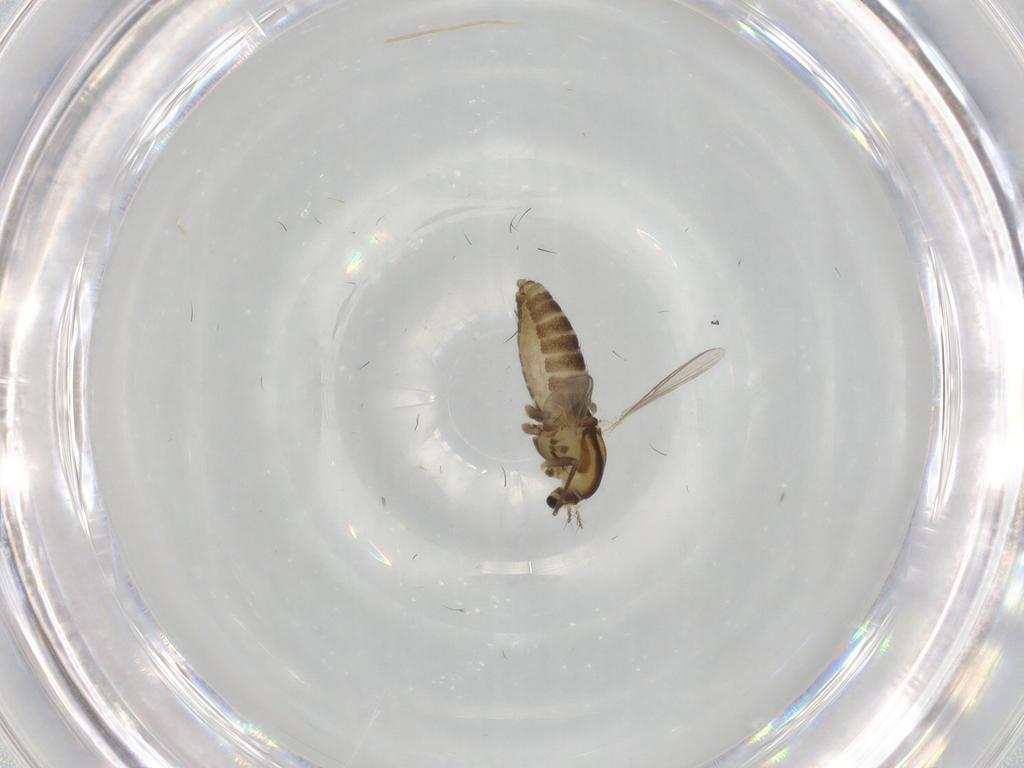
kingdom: Animalia
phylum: Arthropoda
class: Insecta
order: Diptera
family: Chironomidae
